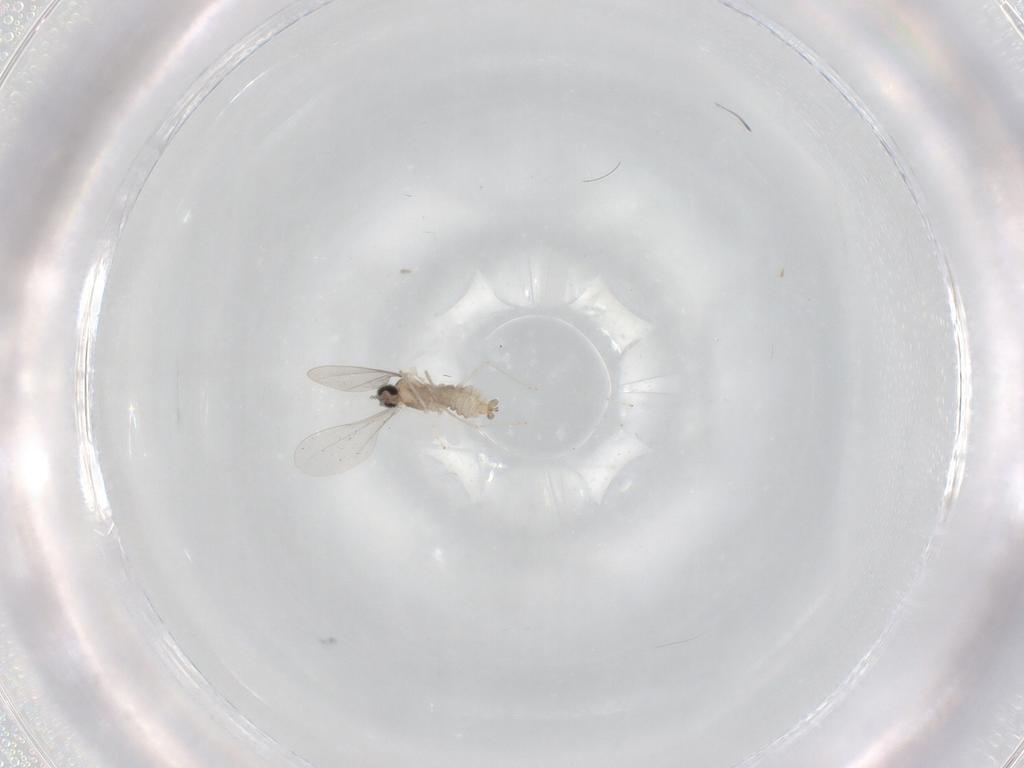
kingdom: Animalia
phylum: Arthropoda
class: Insecta
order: Diptera
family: Cecidomyiidae
